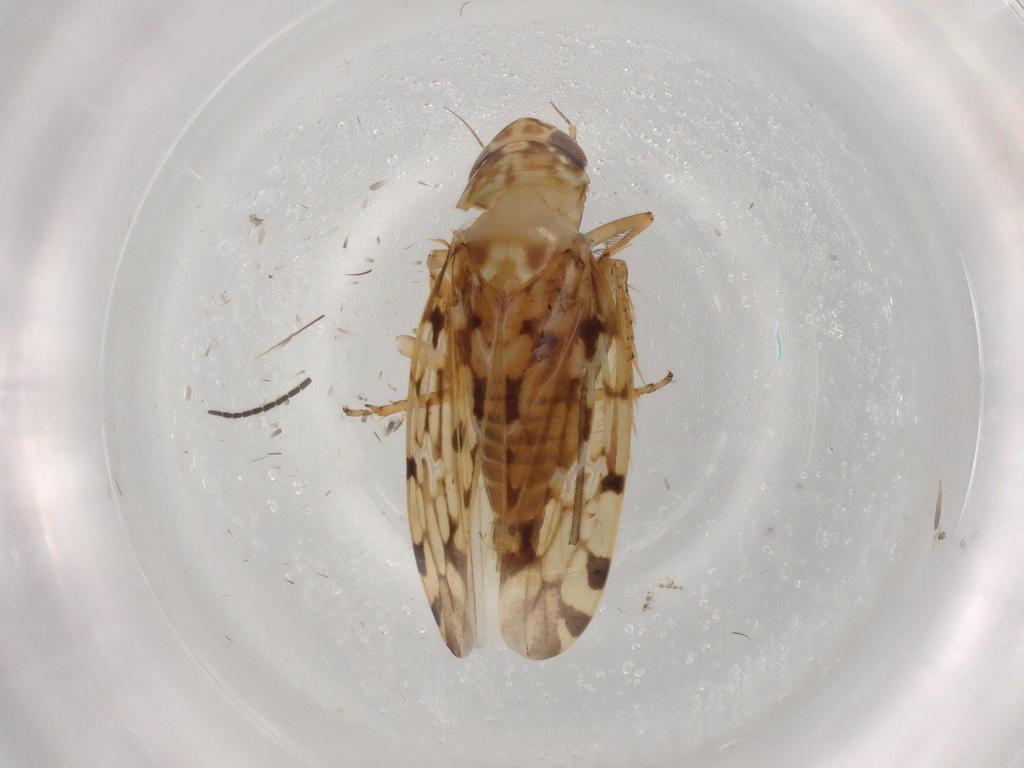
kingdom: Animalia
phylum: Arthropoda
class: Insecta
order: Hemiptera
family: Cicadellidae
